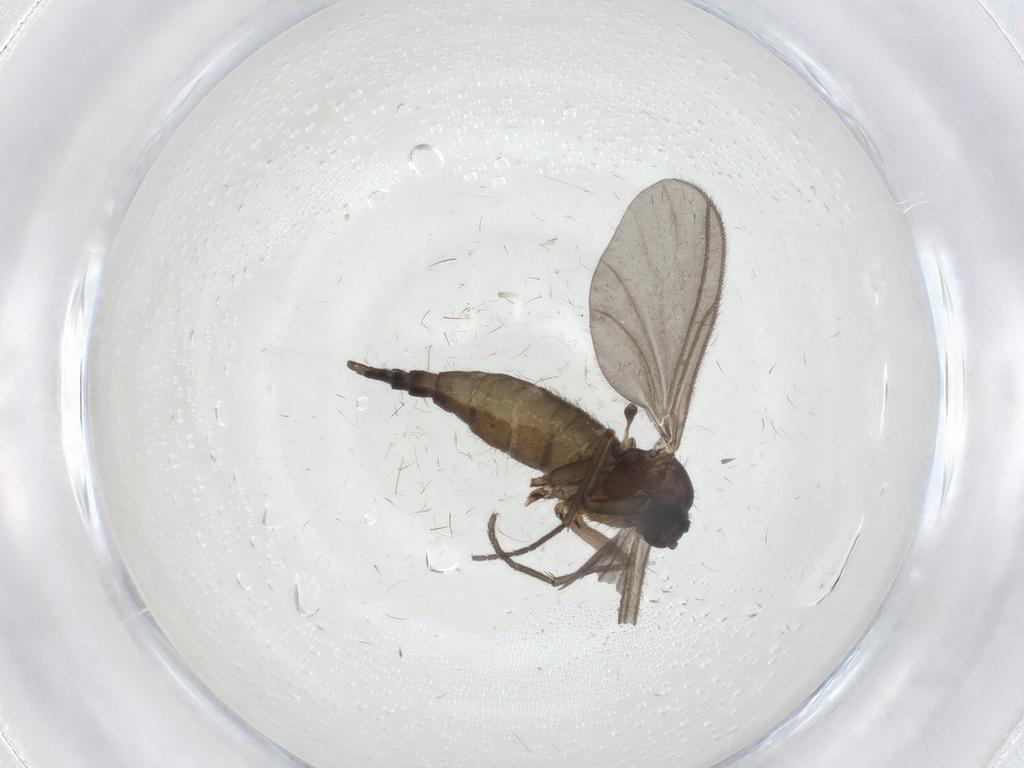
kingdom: Animalia
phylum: Arthropoda
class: Insecta
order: Diptera
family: Sciaridae
